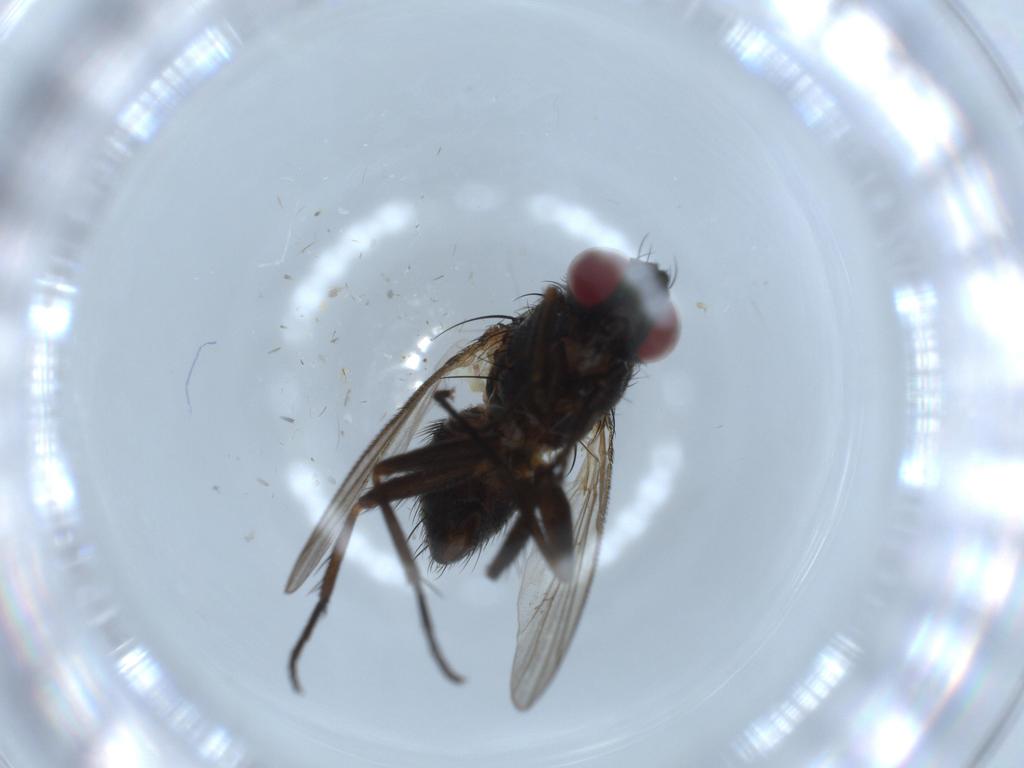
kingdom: Animalia
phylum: Arthropoda
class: Insecta
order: Diptera
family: Muscidae
